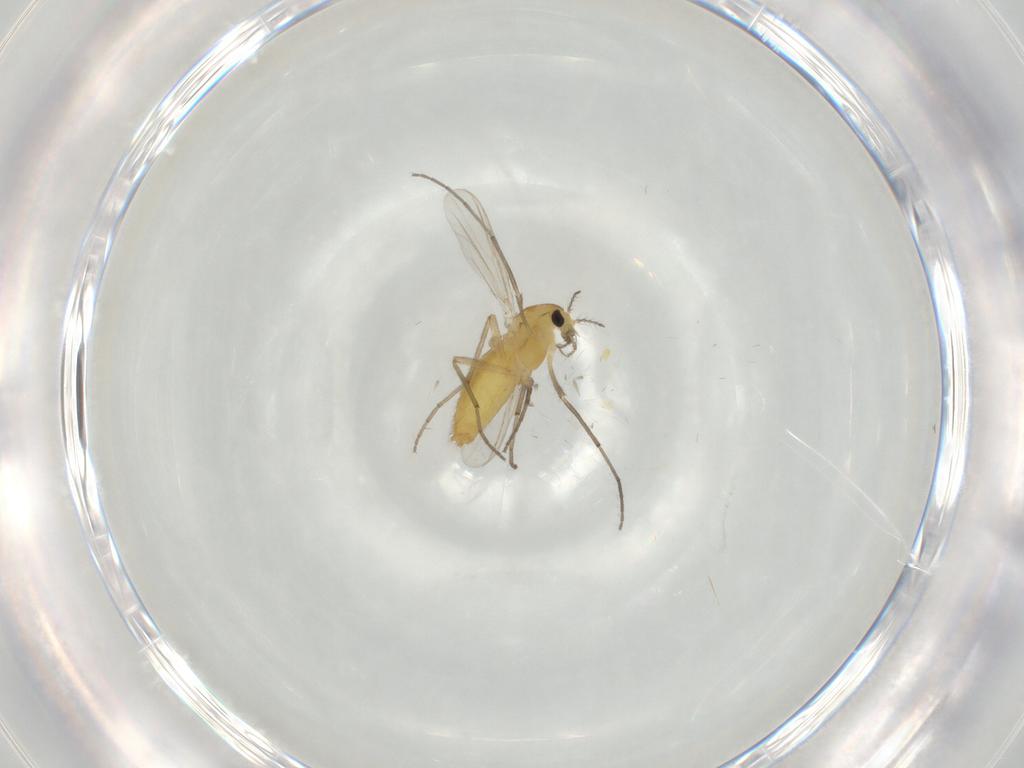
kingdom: Animalia
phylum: Arthropoda
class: Insecta
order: Diptera
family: Chironomidae
